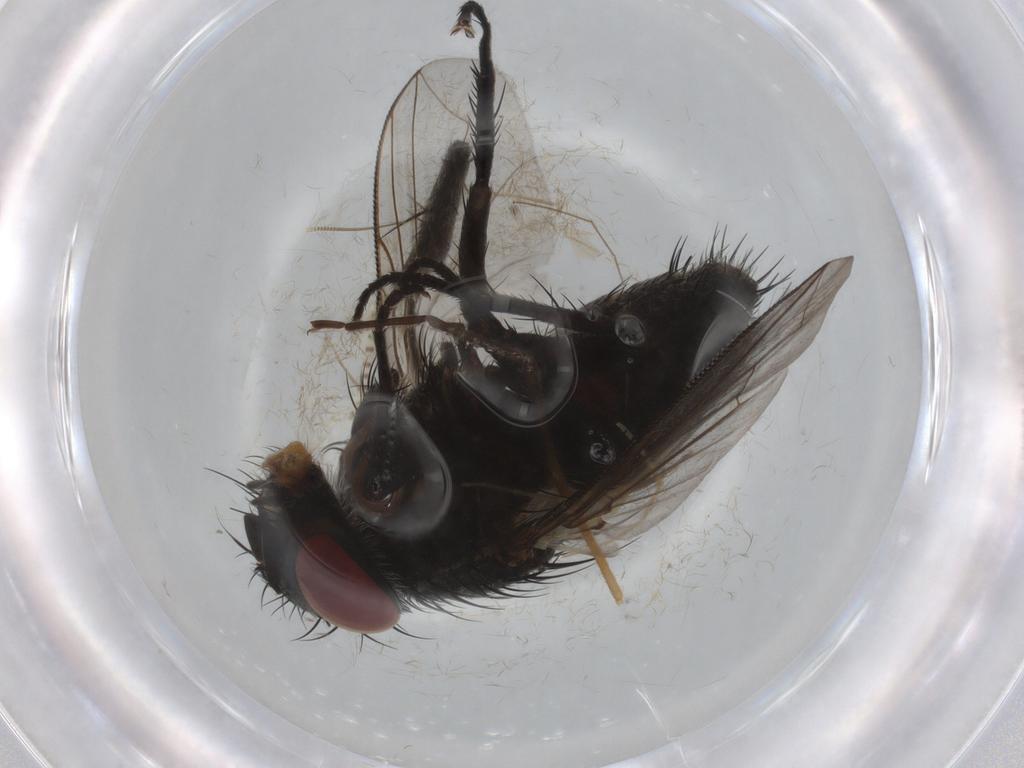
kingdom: Animalia
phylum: Arthropoda
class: Insecta
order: Diptera
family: Tachinidae
